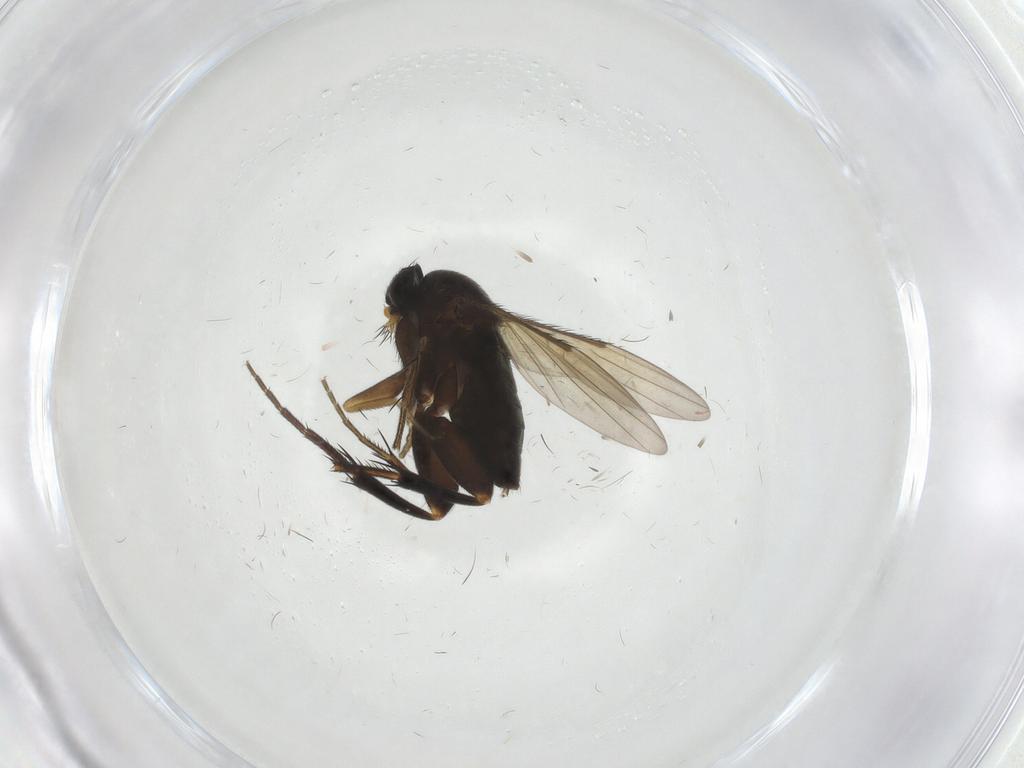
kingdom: Animalia
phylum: Arthropoda
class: Insecta
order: Diptera
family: Phoridae
